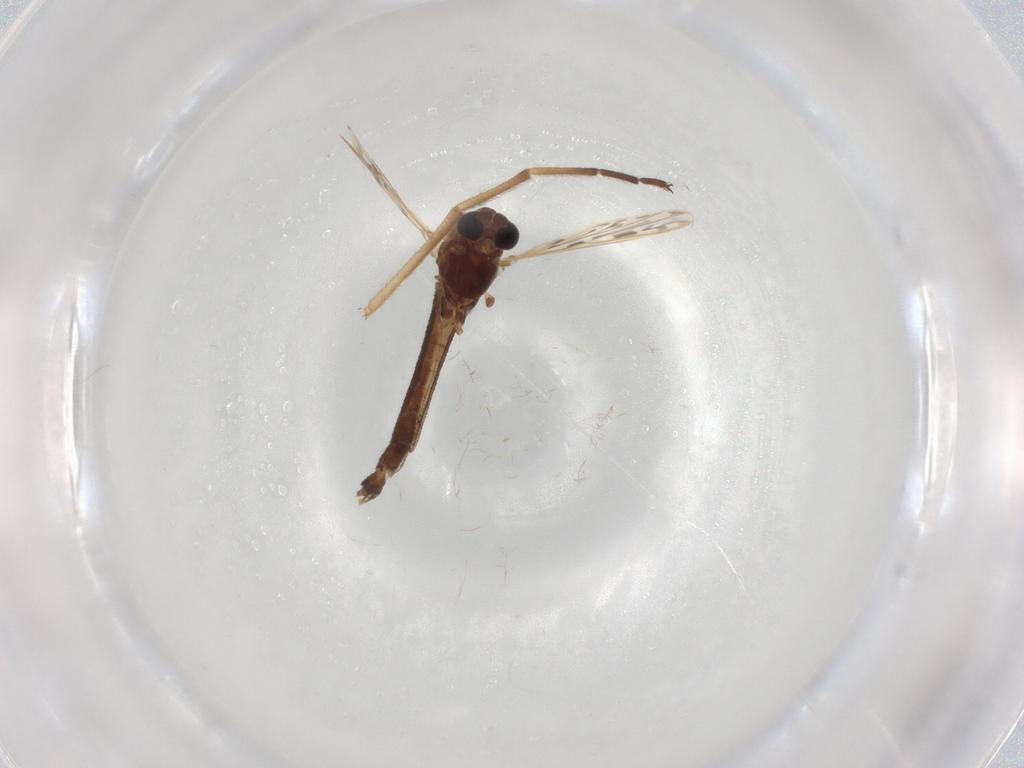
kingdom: Animalia
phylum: Arthropoda
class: Insecta
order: Diptera
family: Chironomidae
